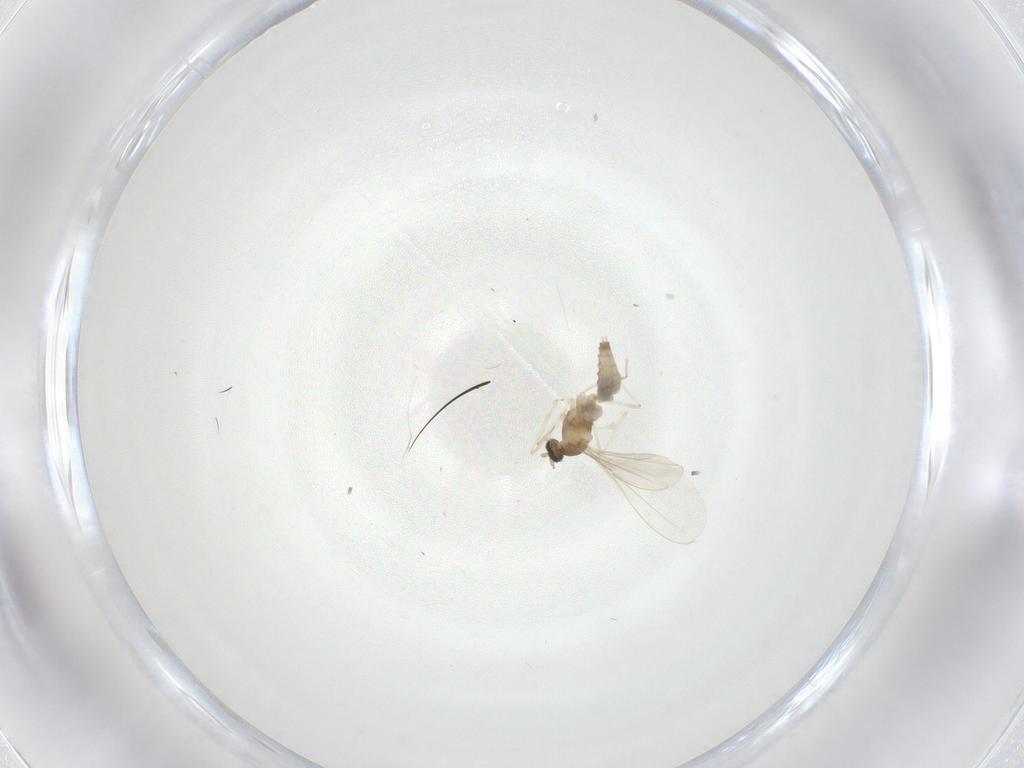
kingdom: Animalia
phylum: Arthropoda
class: Insecta
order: Diptera
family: Cecidomyiidae
